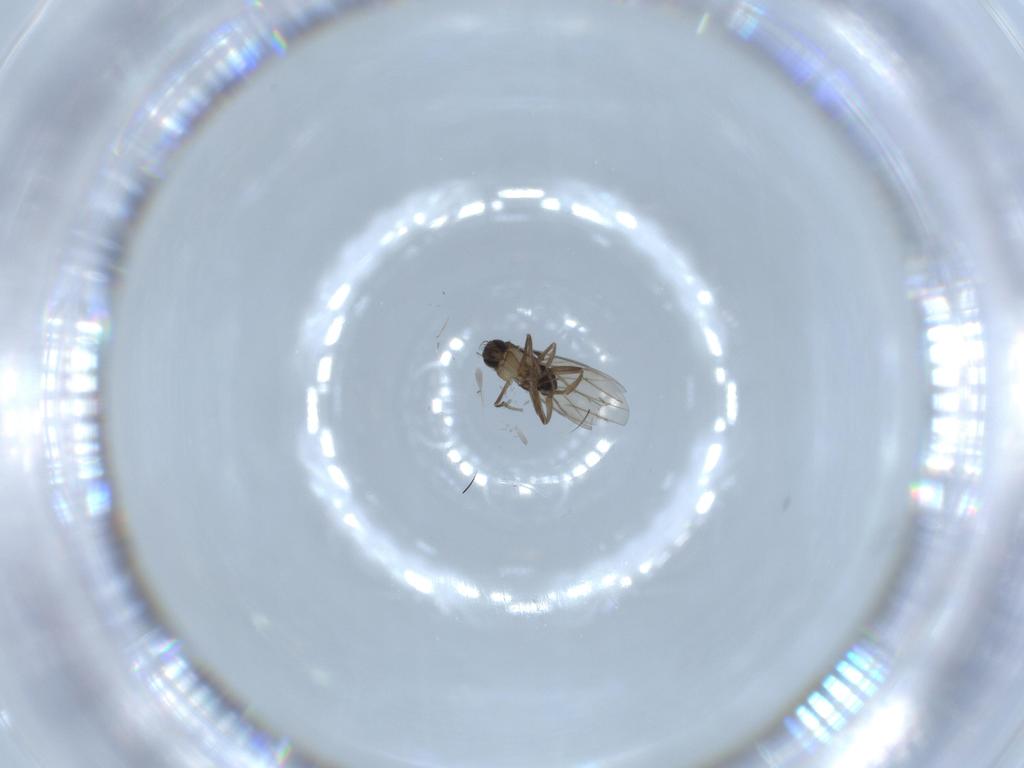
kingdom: Animalia
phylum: Arthropoda
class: Insecta
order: Diptera
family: Phoridae
